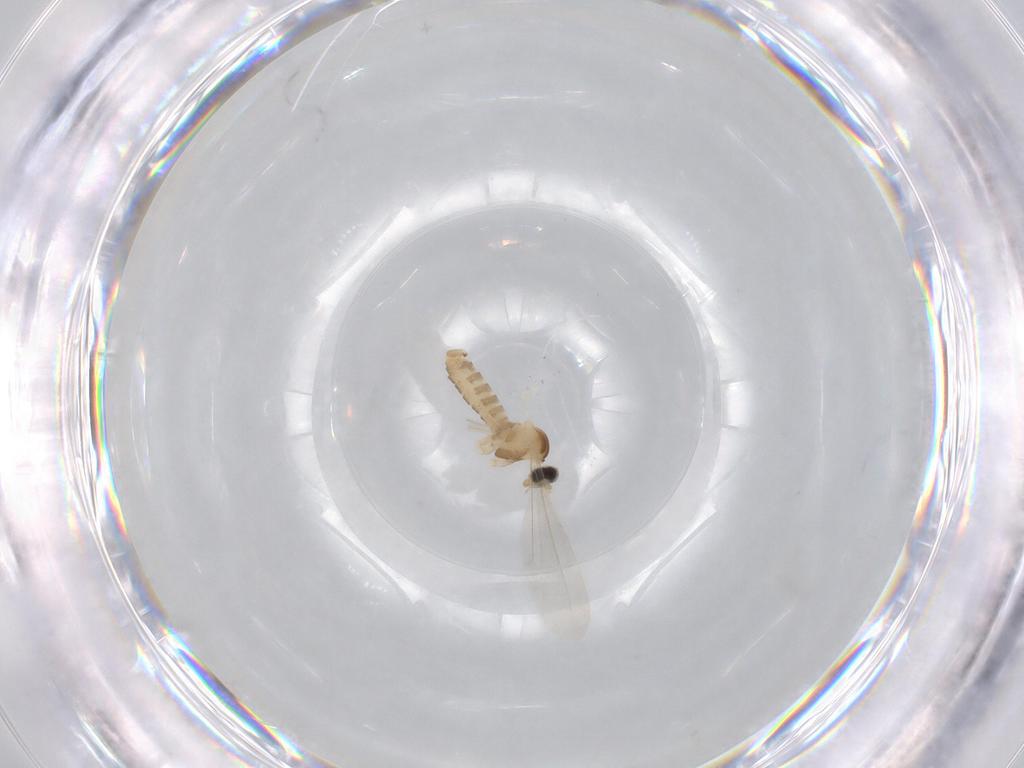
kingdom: Animalia
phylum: Arthropoda
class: Insecta
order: Diptera
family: Cecidomyiidae
